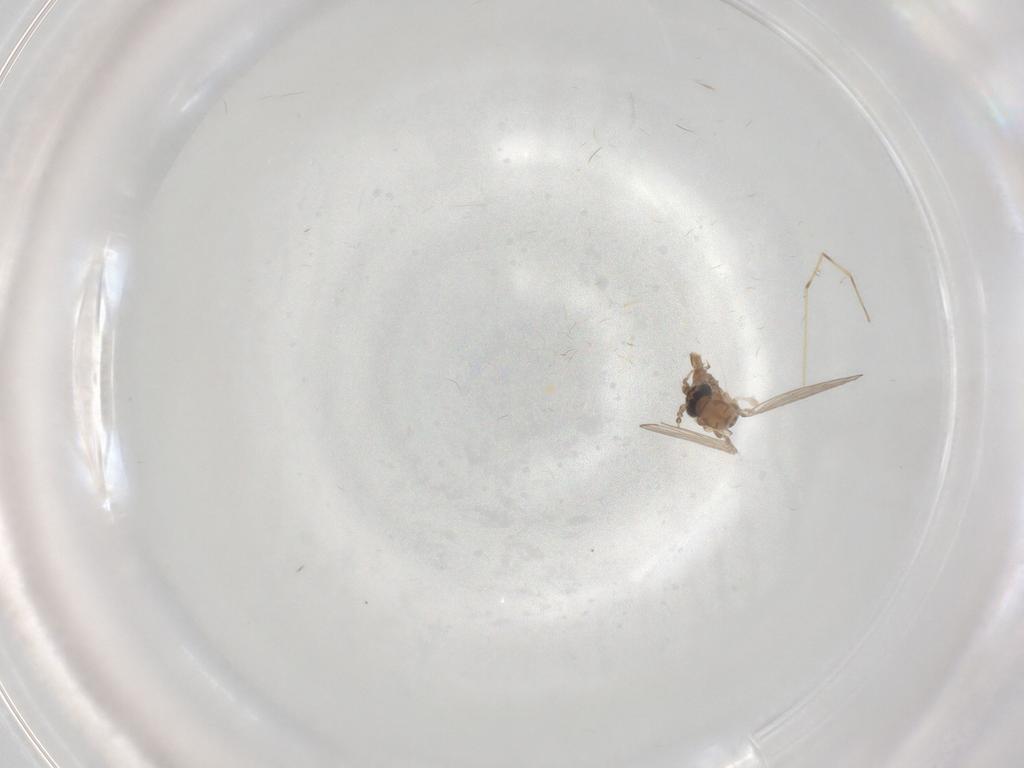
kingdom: Animalia
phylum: Arthropoda
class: Insecta
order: Diptera
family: Psychodidae
